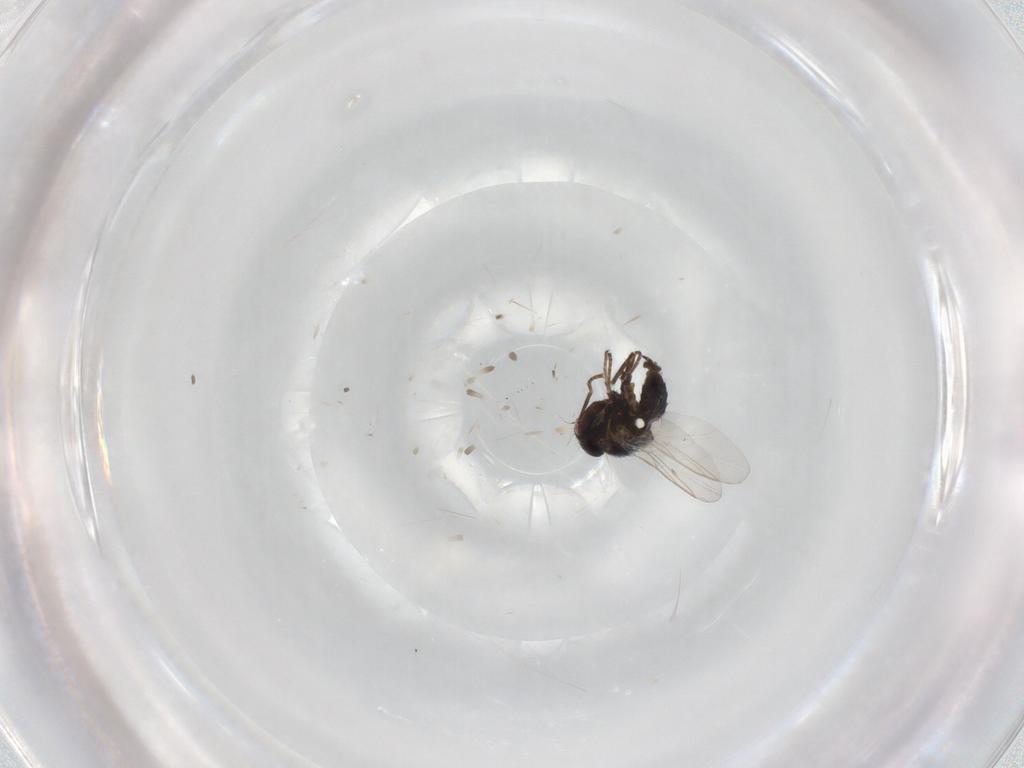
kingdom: Animalia
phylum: Arthropoda
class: Insecta
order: Diptera
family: Agromyzidae
